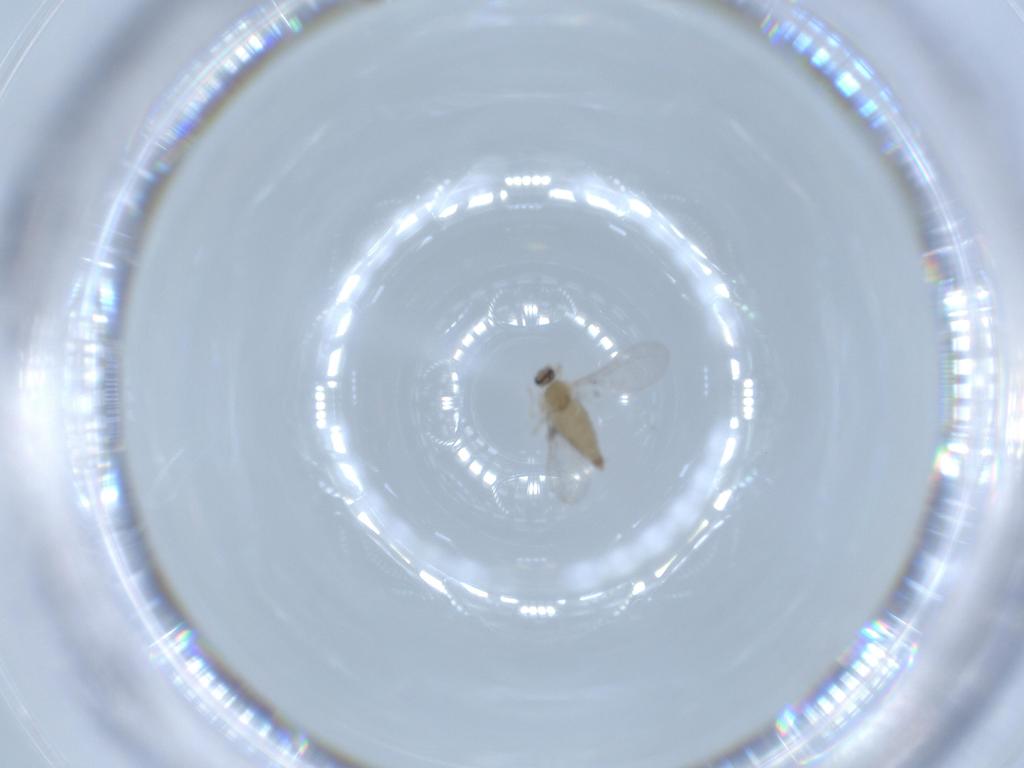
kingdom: Animalia
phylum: Arthropoda
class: Insecta
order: Diptera
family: Cecidomyiidae
